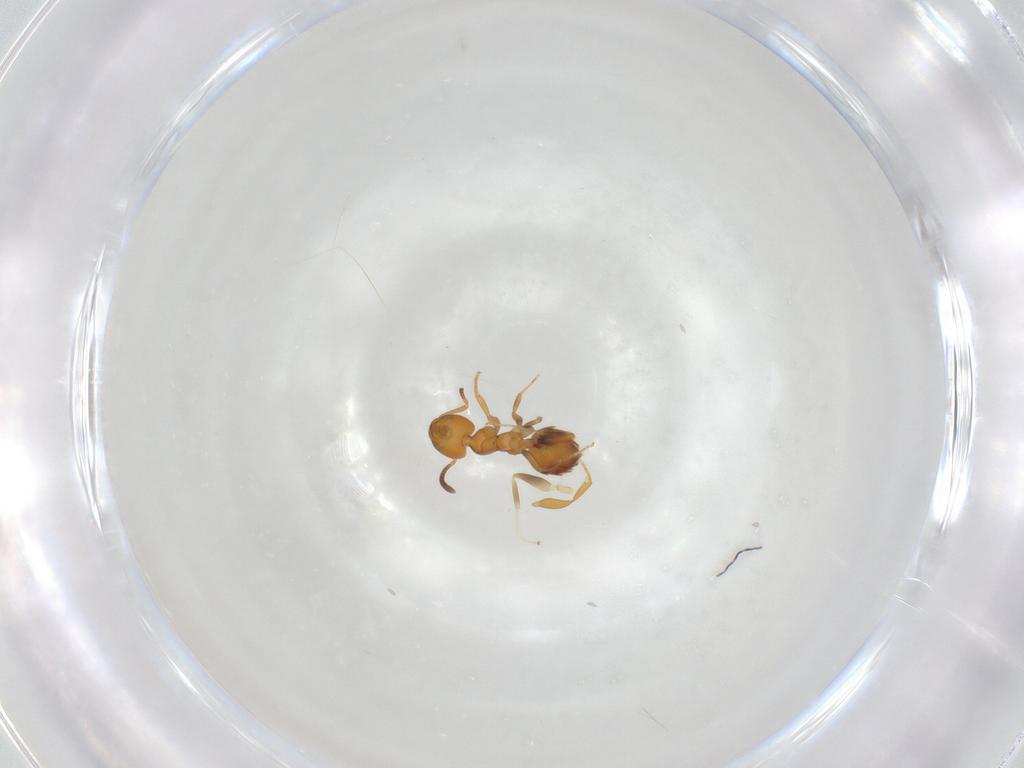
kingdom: Animalia
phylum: Arthropoda
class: Insecta
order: Hymenoptera
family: Formicidae
